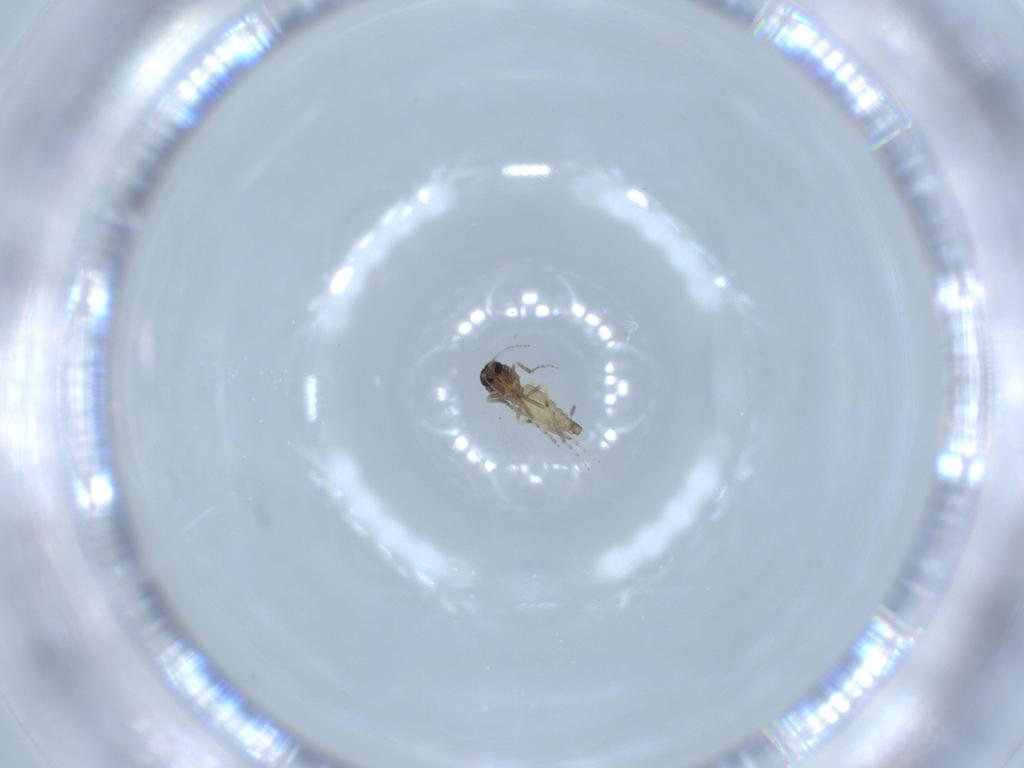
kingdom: Animalia
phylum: Arthropoda
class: Insecta
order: Diptera
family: Ceratopogonidae
